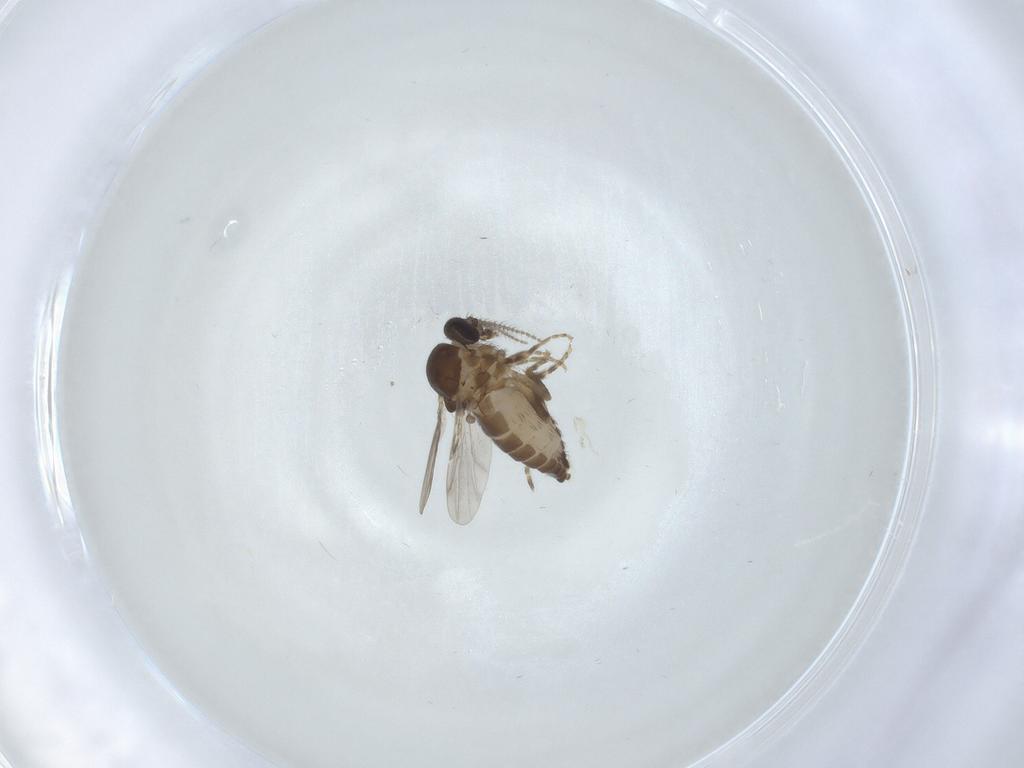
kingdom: Animalia
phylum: Arthropoda
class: Insecta
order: Diptera
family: Ceratopogonidae
